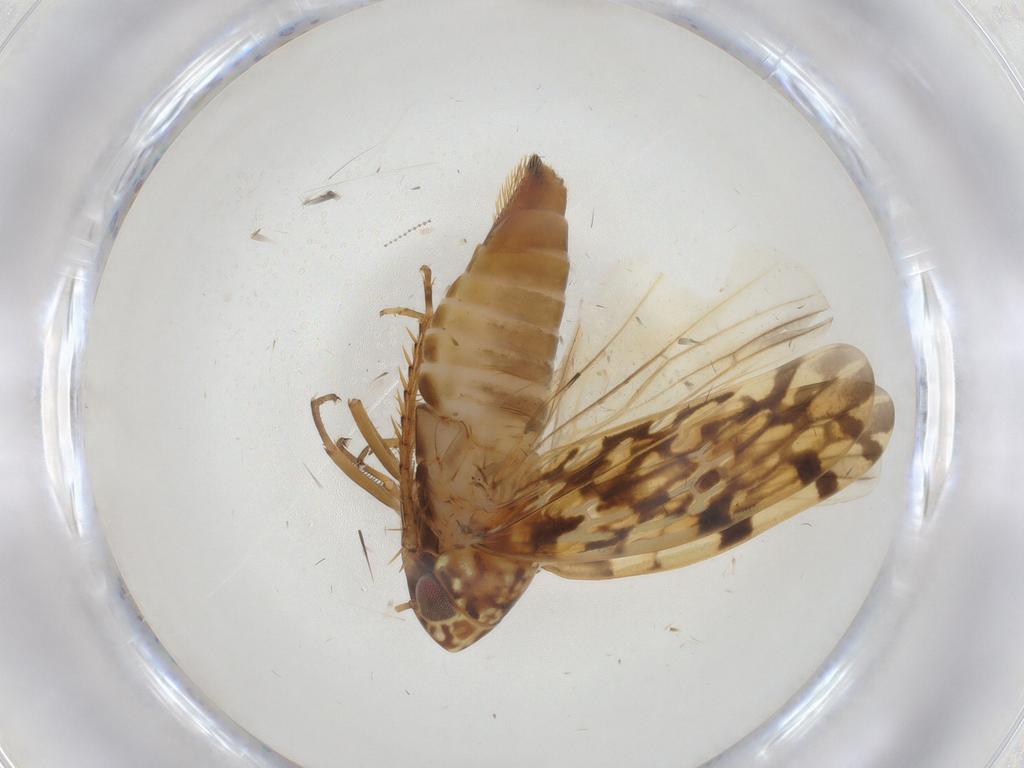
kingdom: Animalia
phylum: Arthropoda
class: Insecta
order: Hemiptera
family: Cicadellidae
